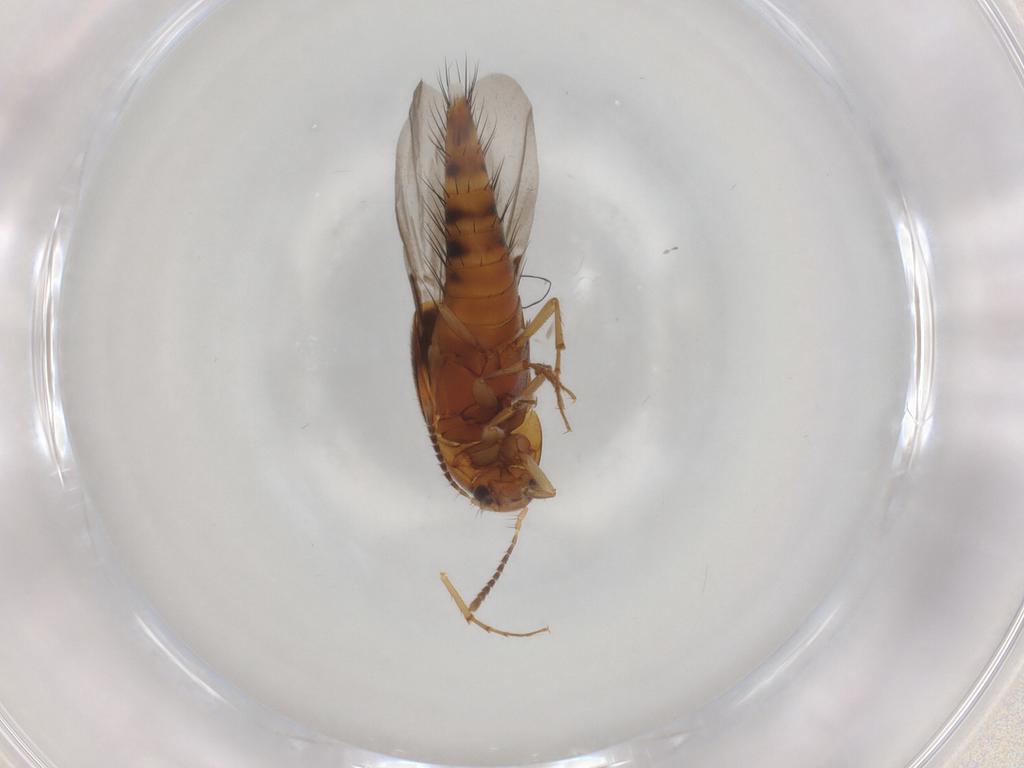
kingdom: Animalia
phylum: Arthropoda
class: Insecta
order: Coleoptera
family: Staphylinidae
